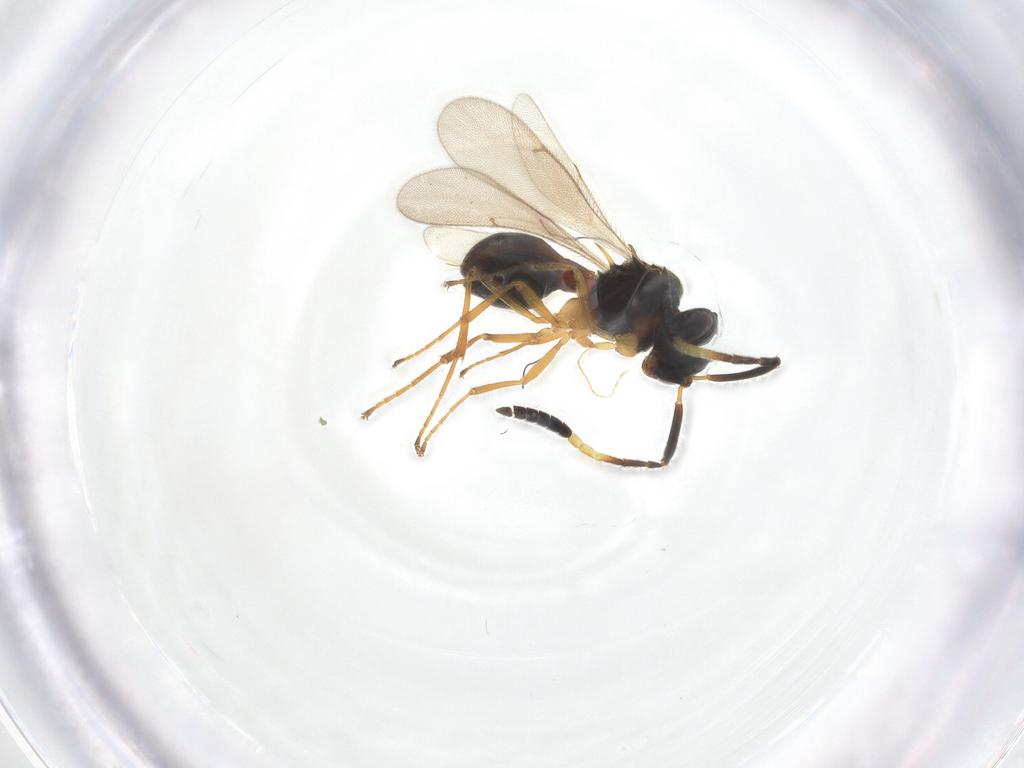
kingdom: Animalia
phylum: Arthropoda
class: Insecta
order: Hymenoptera
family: Scelionidae
